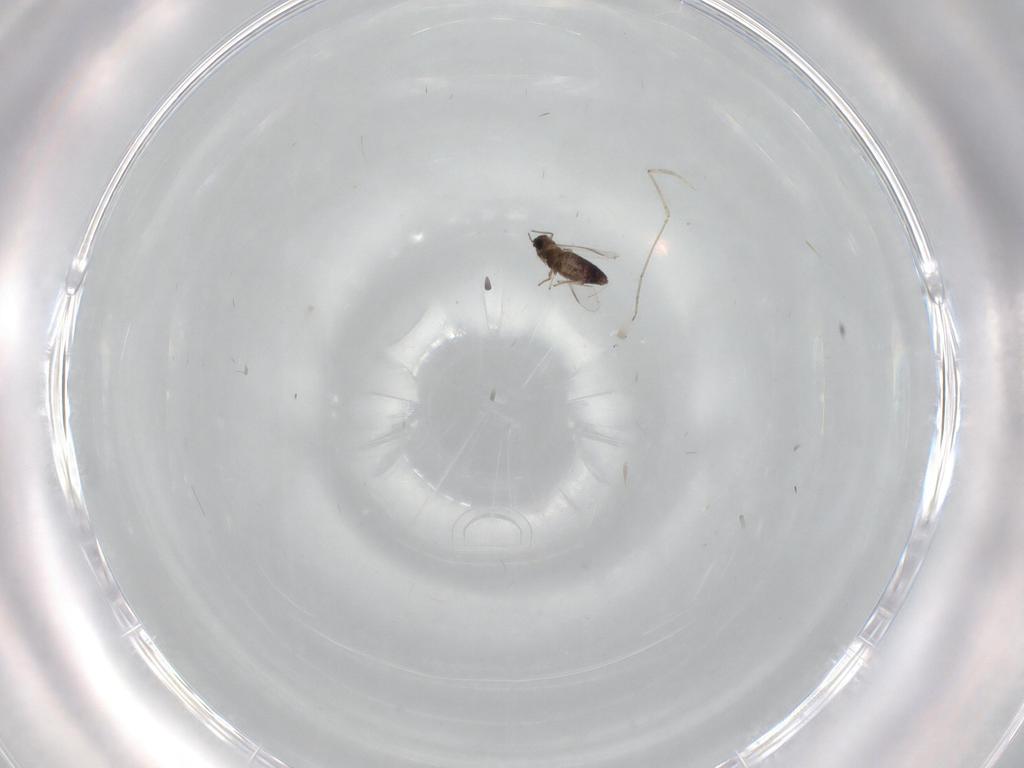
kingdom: Animalia
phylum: Arthropoda
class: Insecta
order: Diptera
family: Chironomidae
